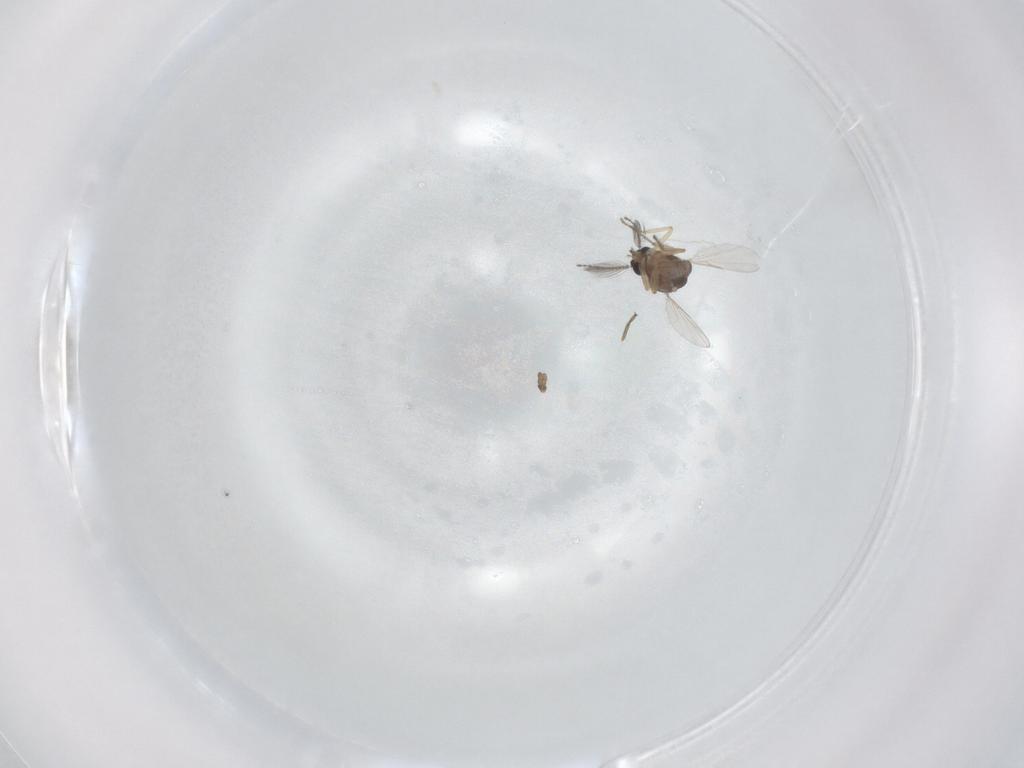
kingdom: Animalia
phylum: Arthropoda
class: Insecta
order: Diptera
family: Ceratopogonidae
